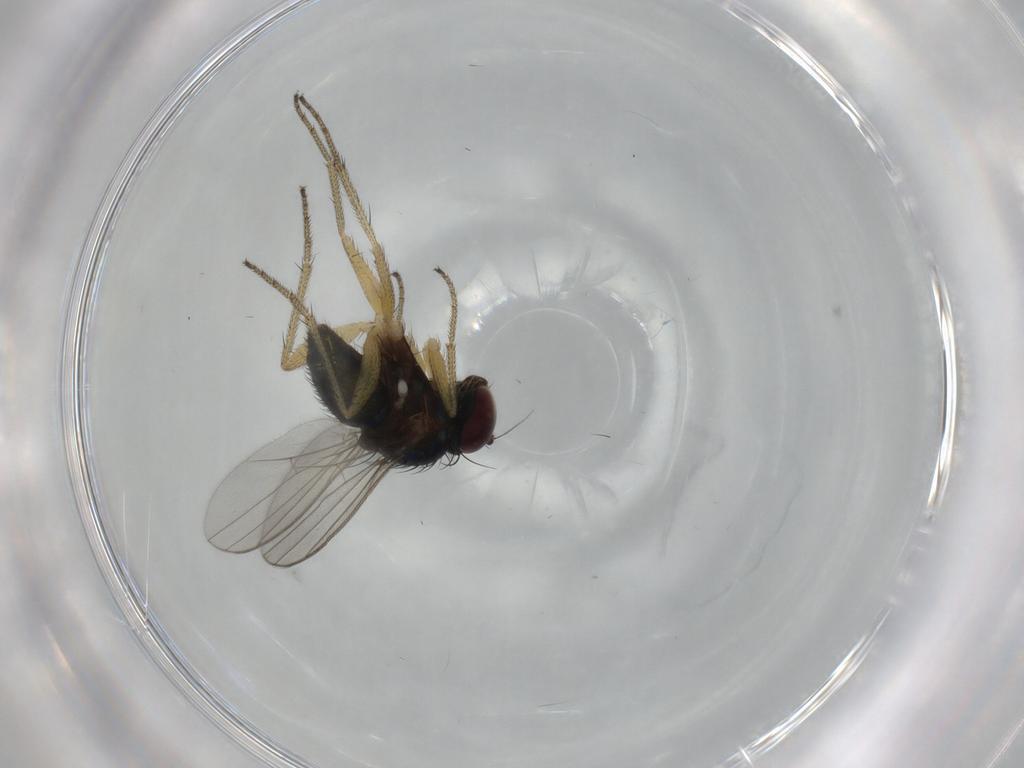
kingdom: Animalia
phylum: Arthropoda
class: Insecta
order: Diptera
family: Dolichopodidae
